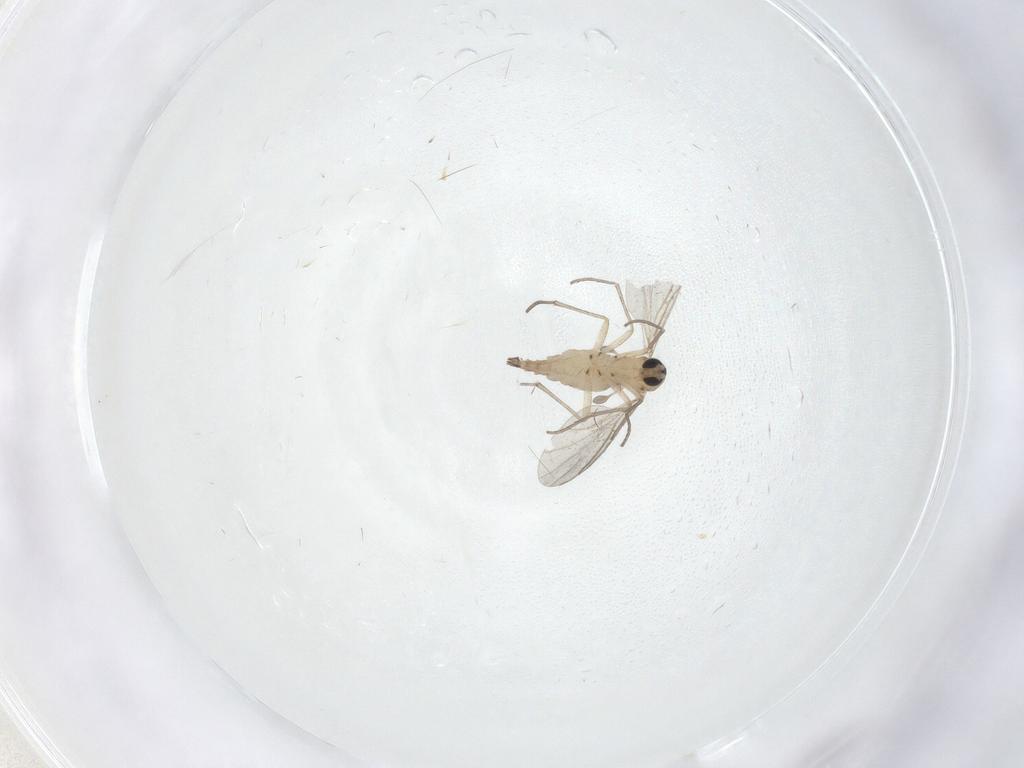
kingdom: Animalia
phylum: Arthropoda
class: Insecta
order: Diptera
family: Sciaridae
